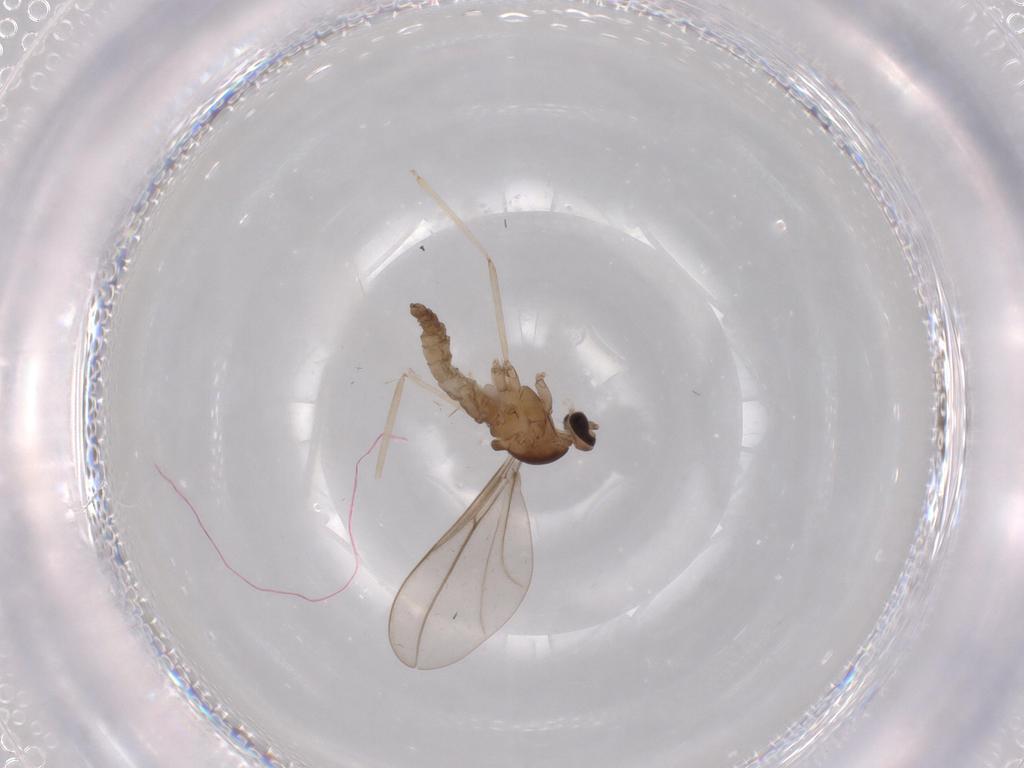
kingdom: Animalia
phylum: Arthropoda
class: Insecta
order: Diptera
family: Cecidomyiidae
